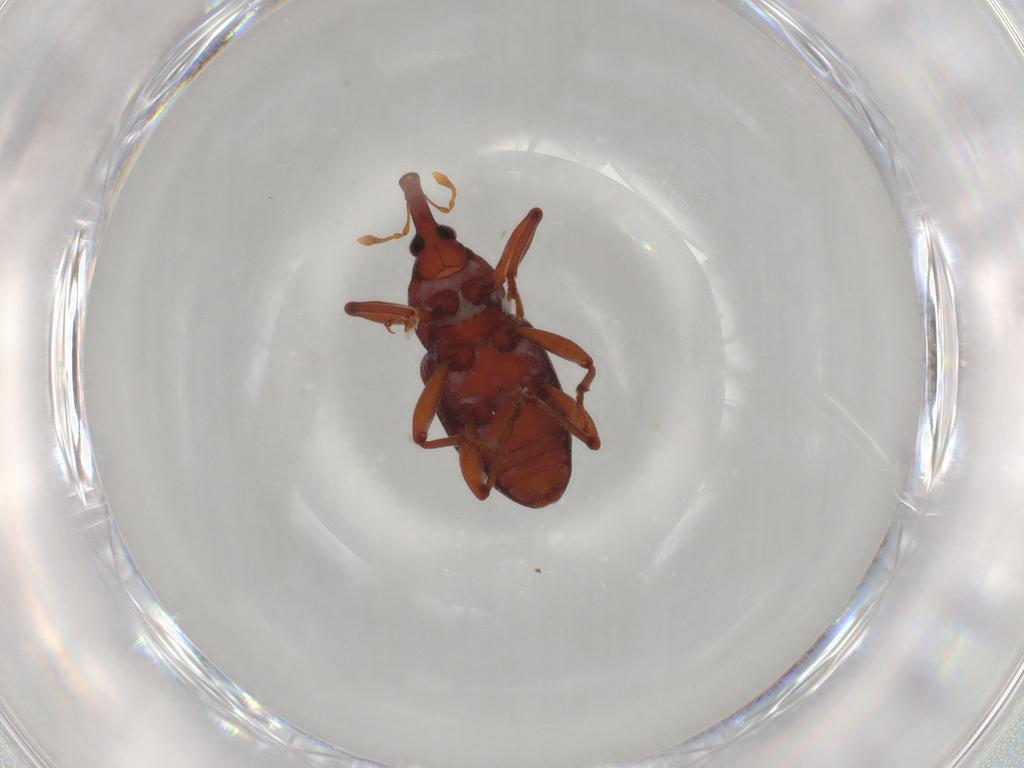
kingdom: Animalia
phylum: Arthropoda
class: Insecta
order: Coleoptera
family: Curculionidae
